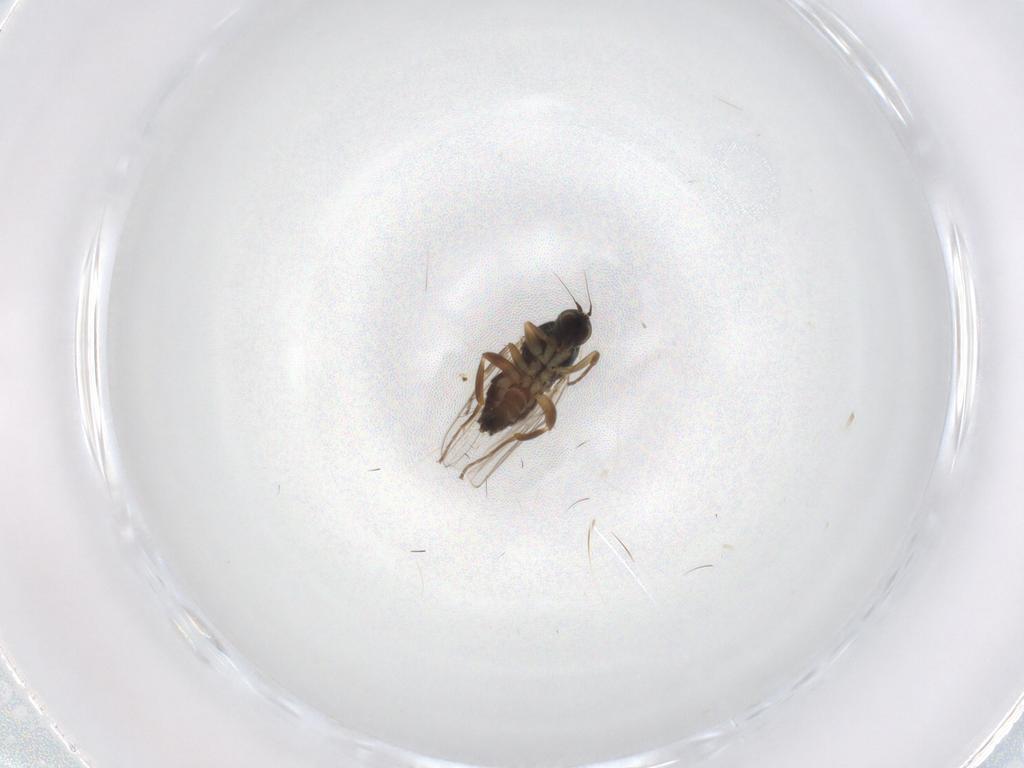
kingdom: Animalia
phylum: Arthropoda
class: Insecta
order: Diptera
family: Hybotidae
